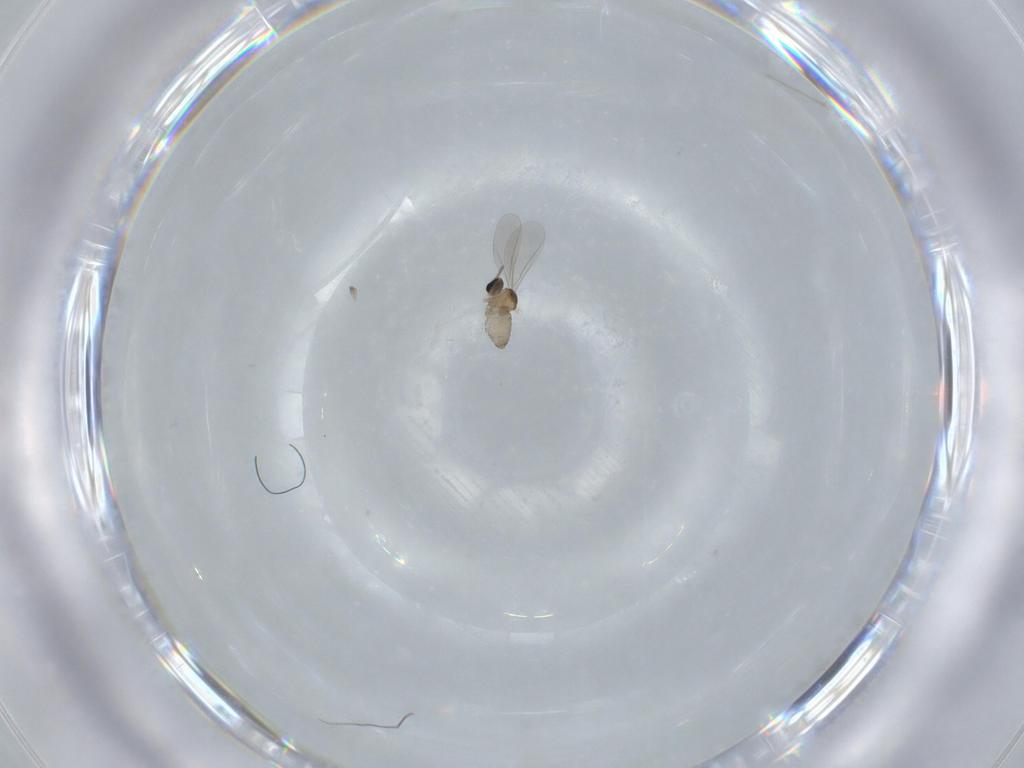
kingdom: Animalia
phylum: Arthropoda
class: Insecta
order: Diptera
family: Cecidomyiidae
